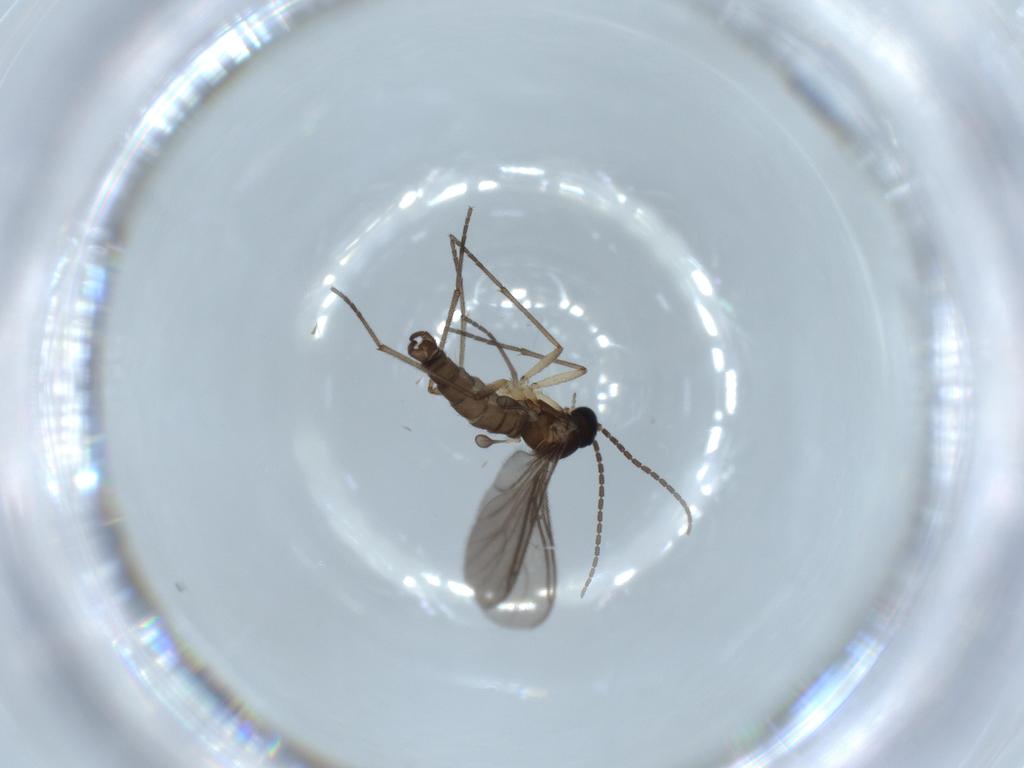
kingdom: Animalia
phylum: Arthropoda
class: Insecta
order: Diptera
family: Sciaridae
